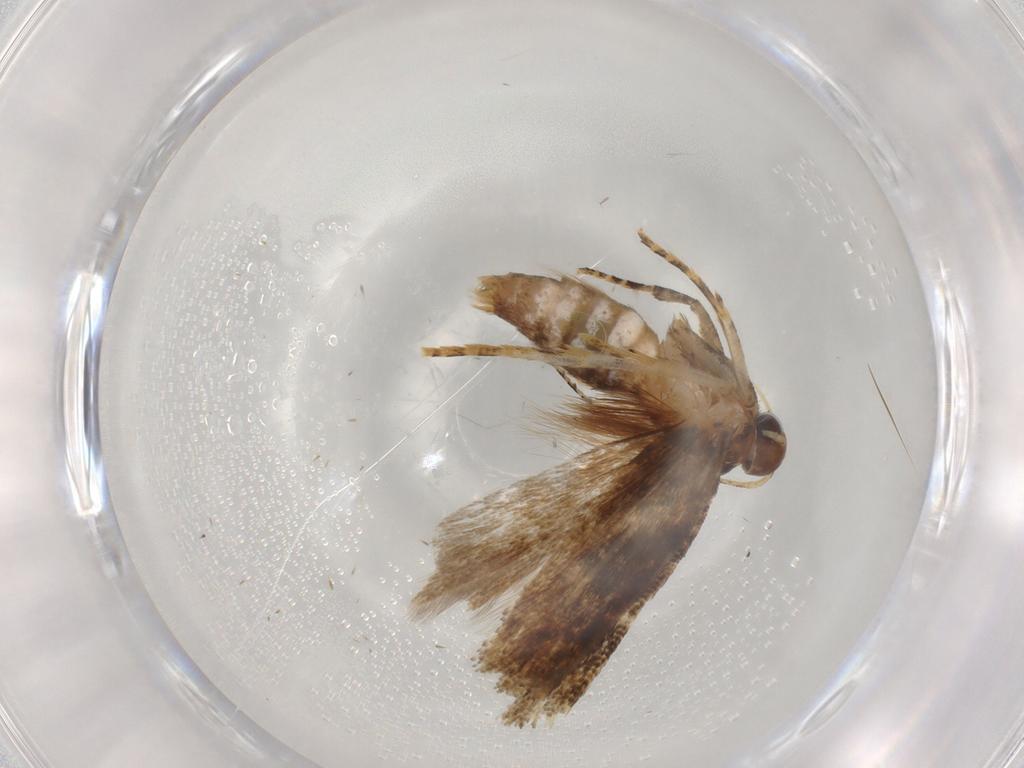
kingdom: Animalia
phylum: Arthropoda
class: Insecta
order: Lepidoptera
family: Gelechiidae
